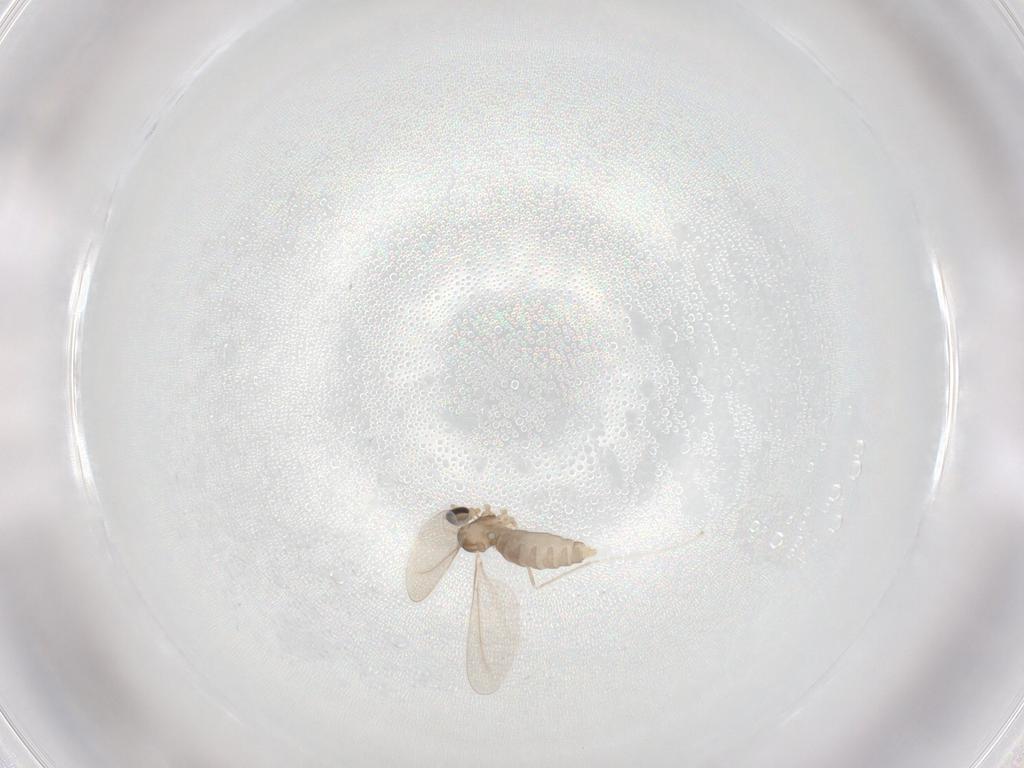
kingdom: Animalia
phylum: Arthropoda
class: Insecta
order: Diptera
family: Cecidomyiidae
